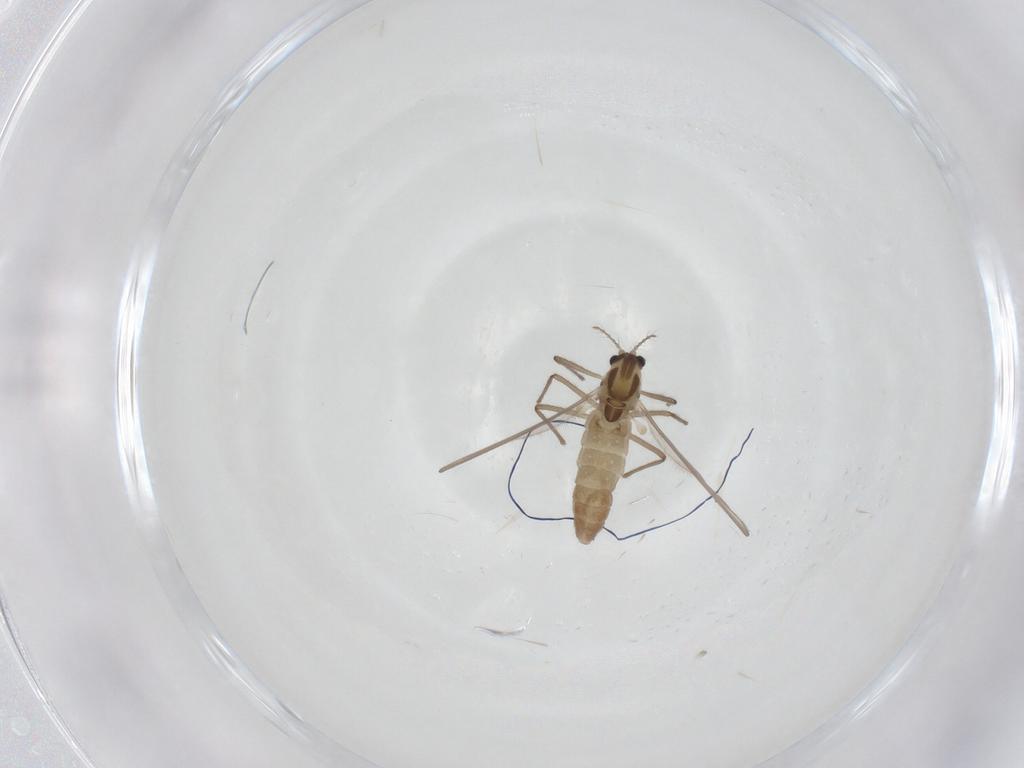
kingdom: Animalia
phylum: Arthropoda
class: Insecta
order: Diptera
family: Chironomidae
